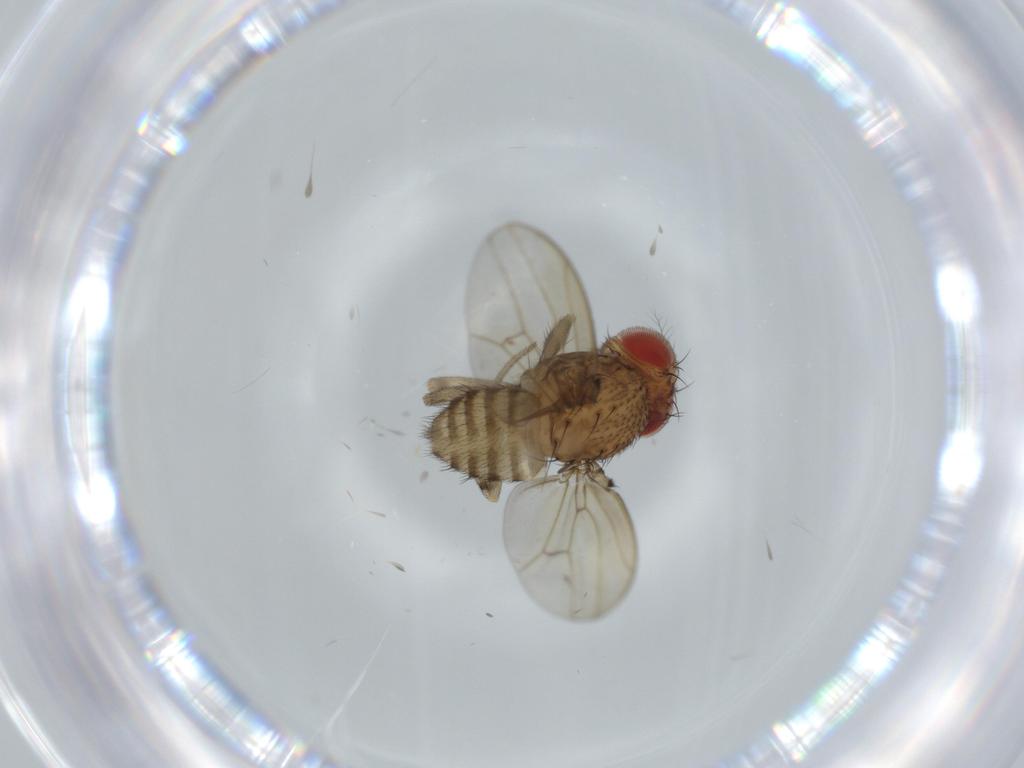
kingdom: Animalia
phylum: Arthropoda
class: Insecta
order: Diptera
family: Drosophilidae
